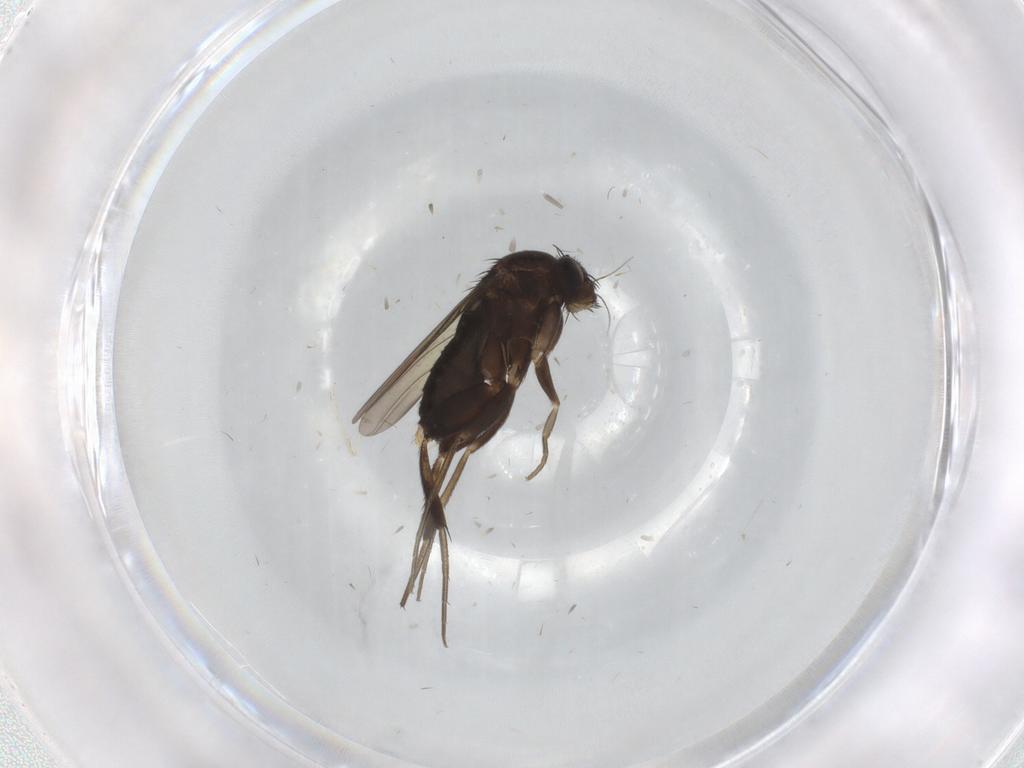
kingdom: Animalia
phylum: Arthropoda
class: Insecta
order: Diptera
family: Phoridae
